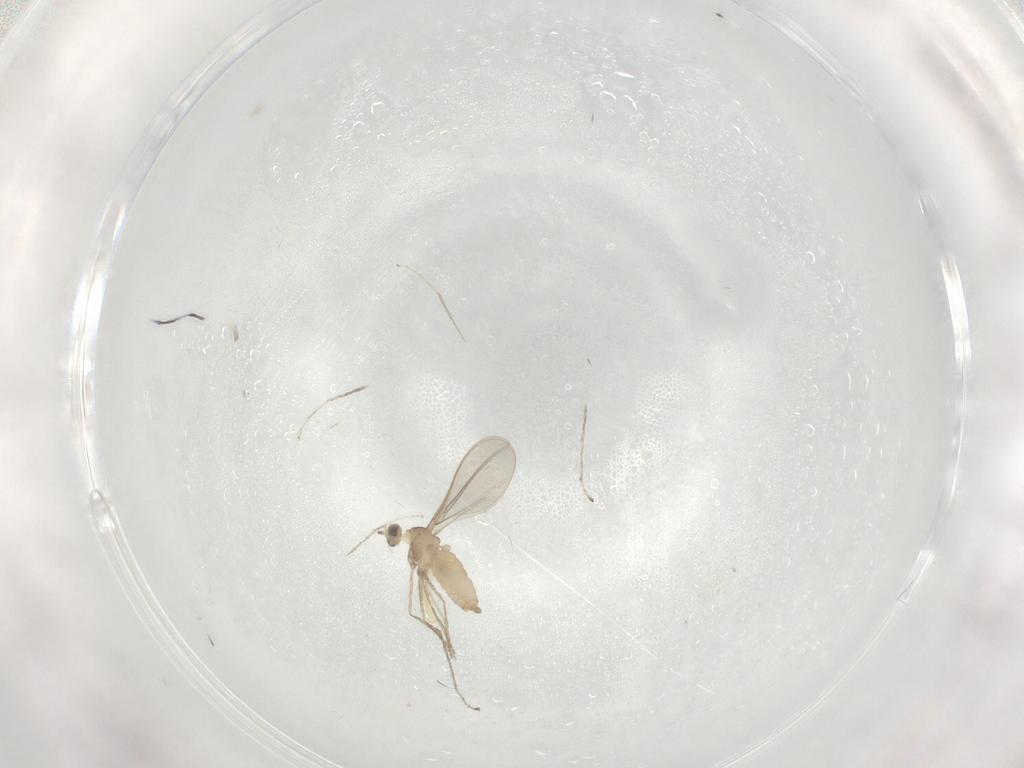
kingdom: Animalia
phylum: Arthropoda
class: Insecta
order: Diptera
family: Cecidomyiidae
